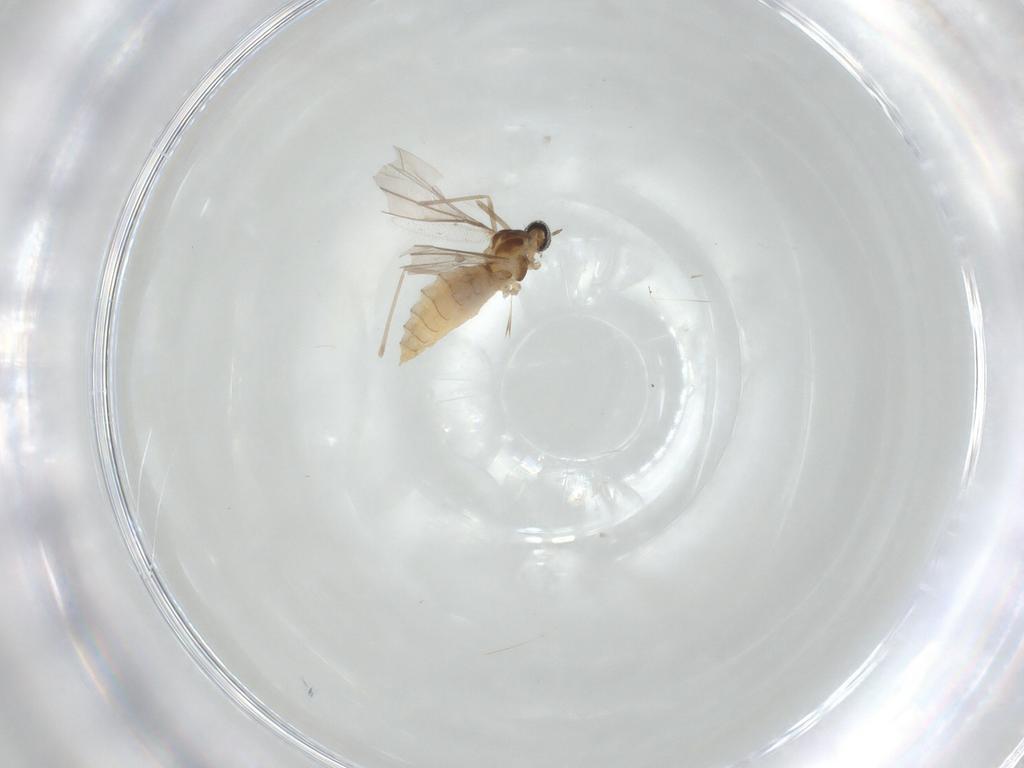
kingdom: Animalia
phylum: Arthropoda
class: Insecta
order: Diptera
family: Cecidomyiidae
